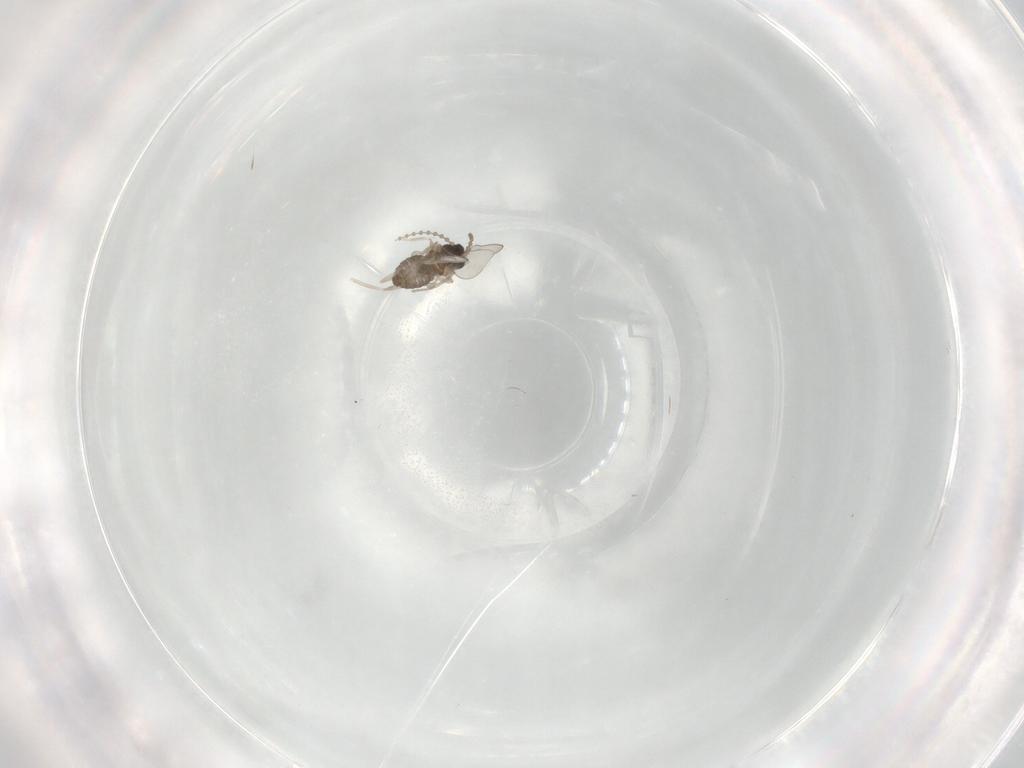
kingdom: Animalia
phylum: Arthropoda
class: Insecta
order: Diptera
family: Cecidomyiidae
